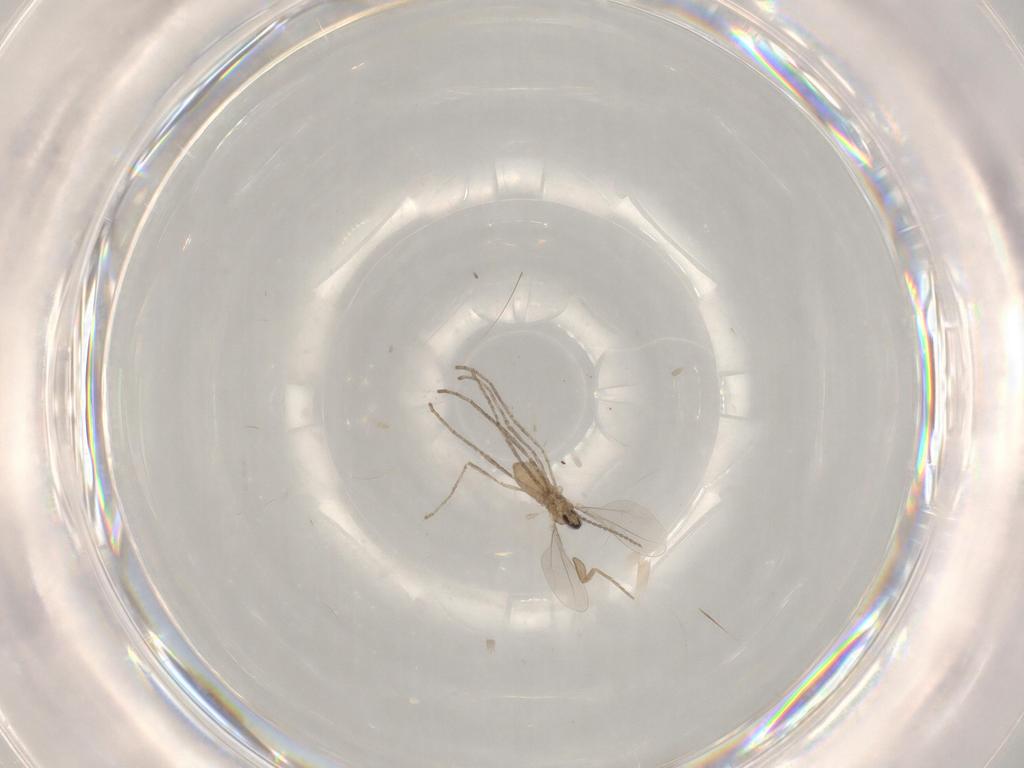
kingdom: Animalia
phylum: Arthropoda
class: Insecta
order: Diptera
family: Cecidomyiidae
